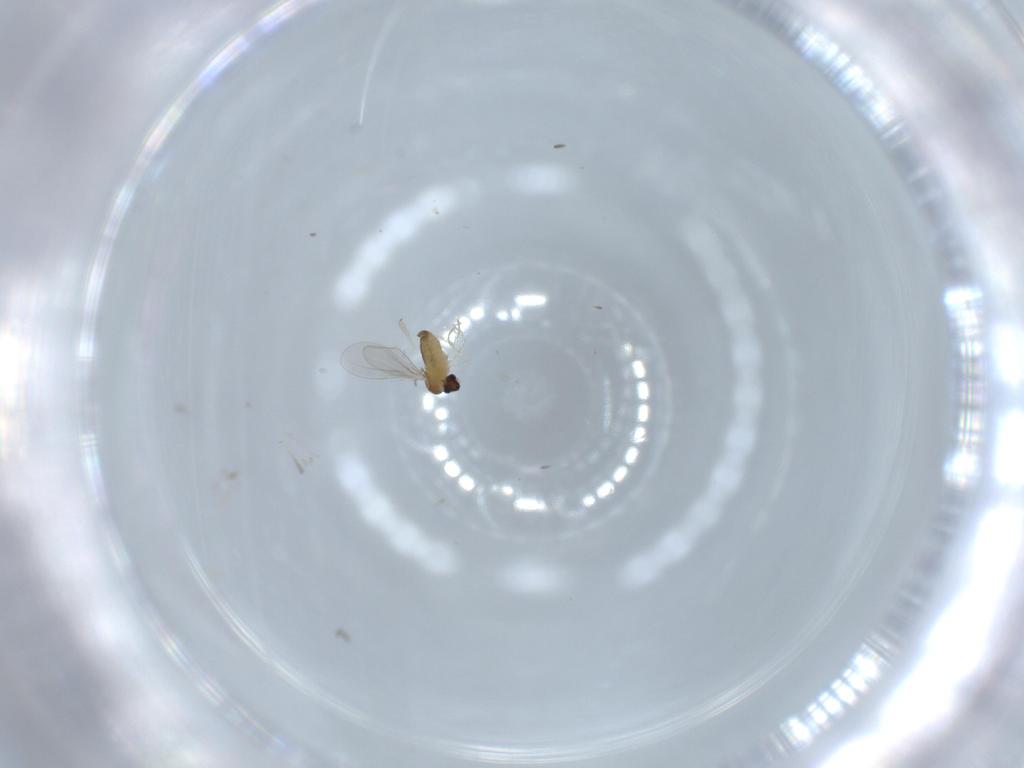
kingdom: Animalia
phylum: Arthropoda
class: Insecta
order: Diptera
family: Cecidomyiidae
